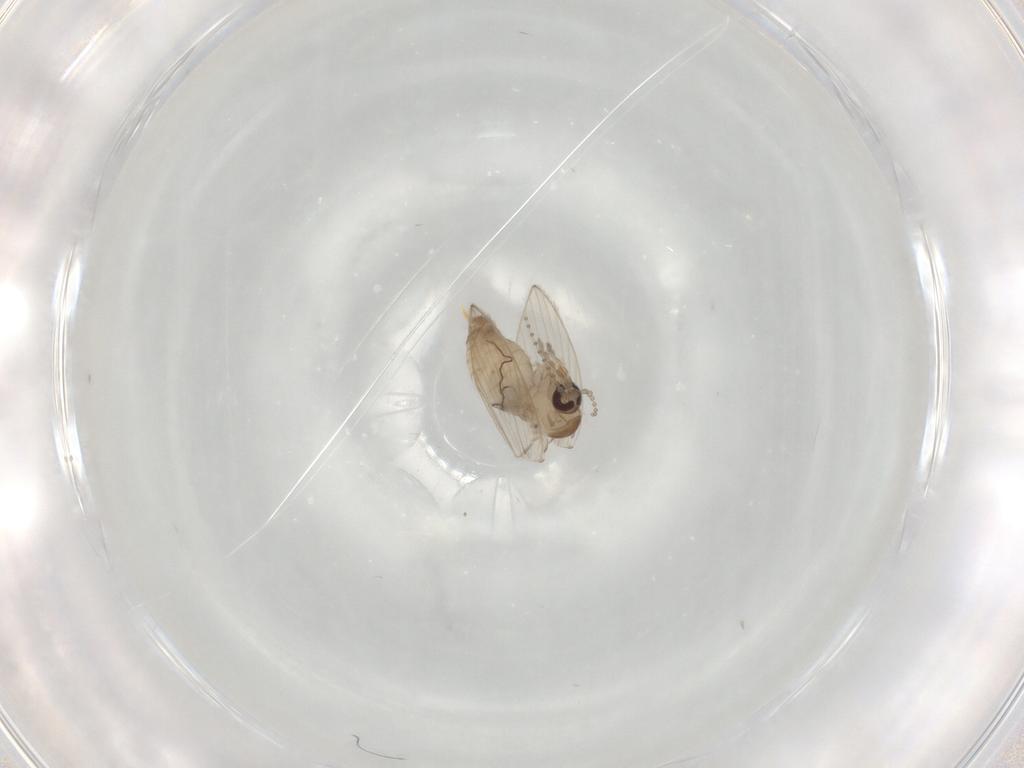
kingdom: Animalia
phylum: Arthropoda
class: Insecta
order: Diptera
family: Psychodidae
